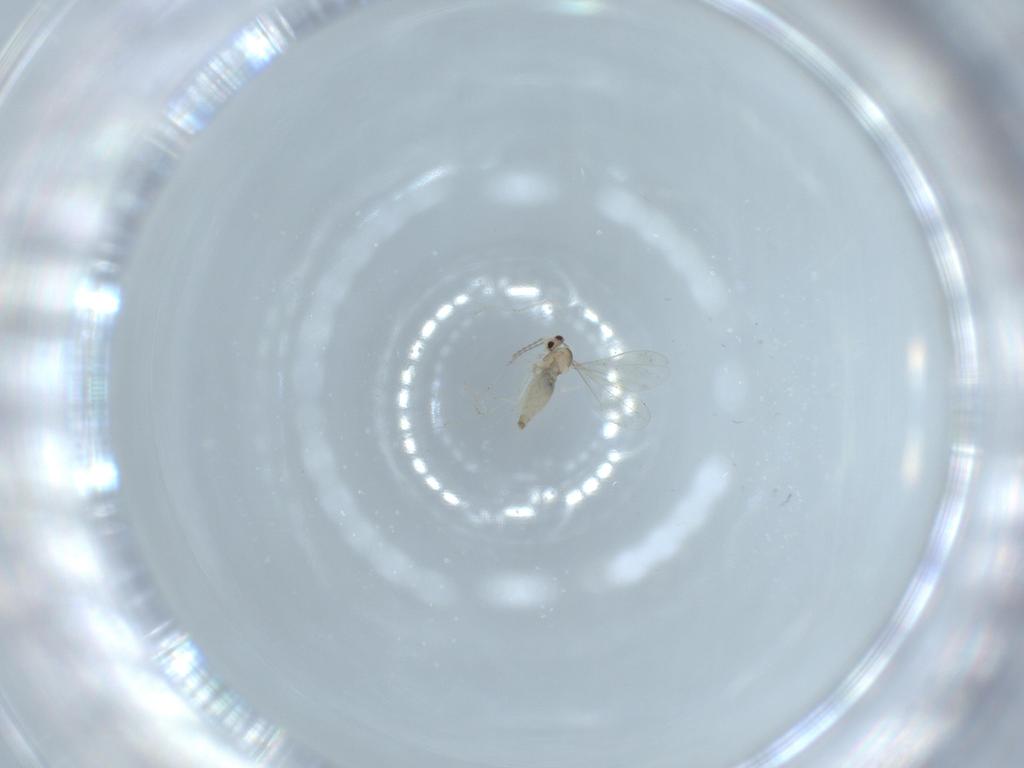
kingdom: Animalia
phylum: Arthropoda
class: Insecta
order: Diptera
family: Cecidomyiidae
